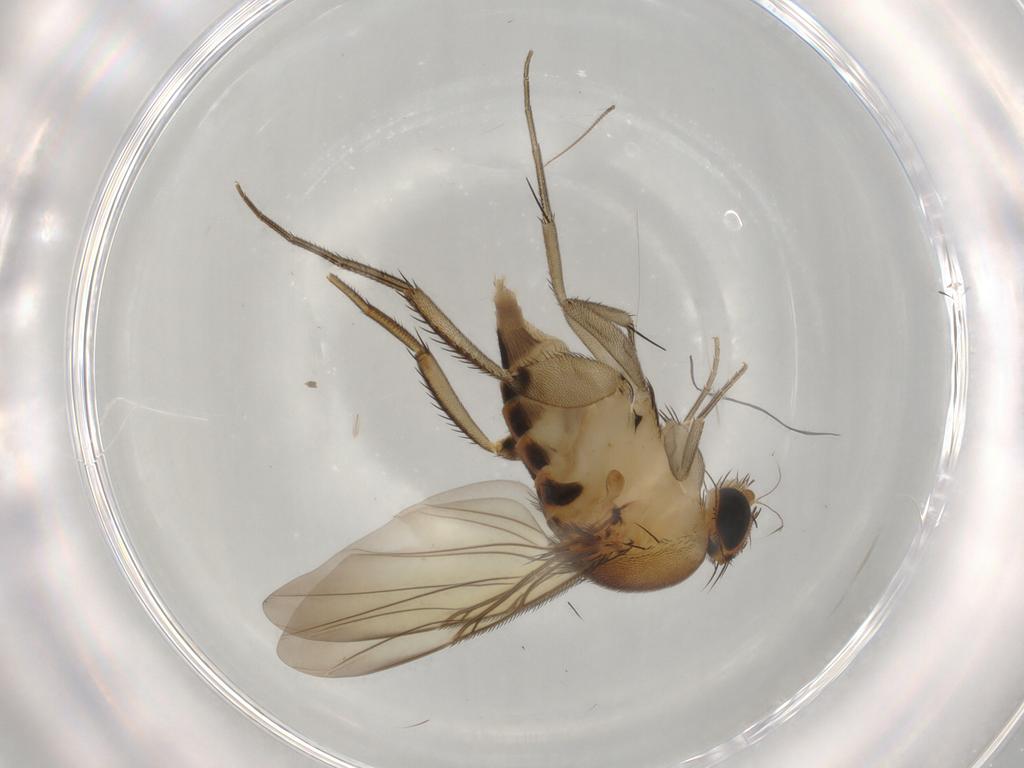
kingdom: Animalia
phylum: Arthropoda
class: Insecta
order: Diptera
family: Phoridae
